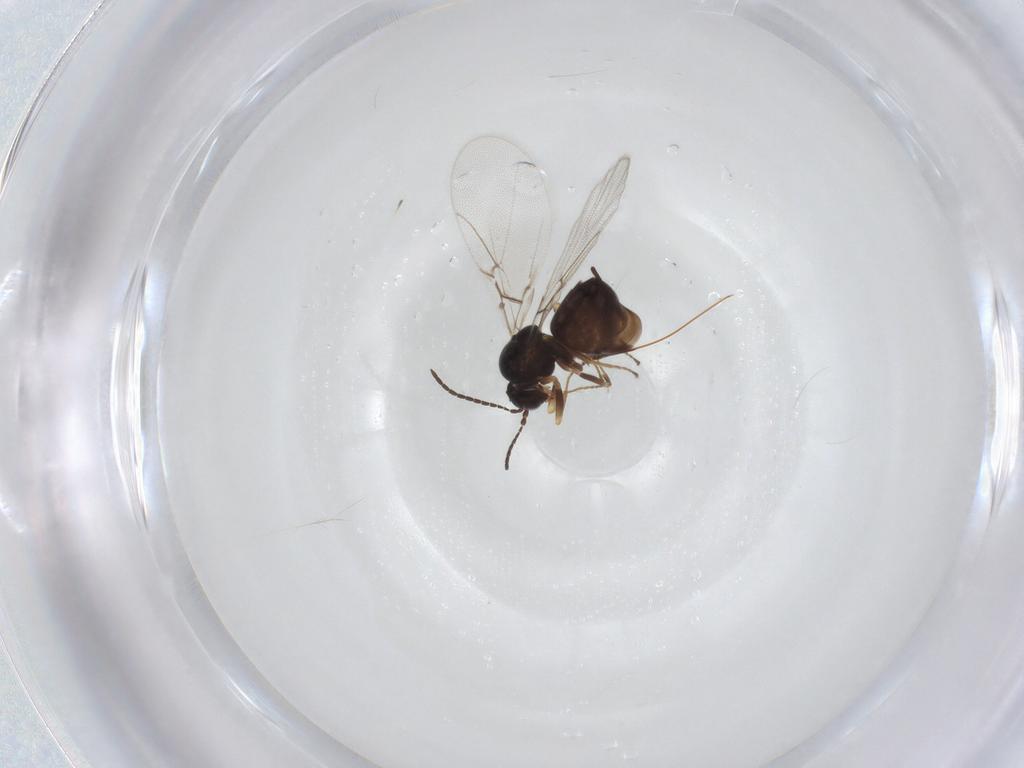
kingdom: Animalia
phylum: Arthropoda
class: Insecta
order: Hymenoptera
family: Cynipidae
